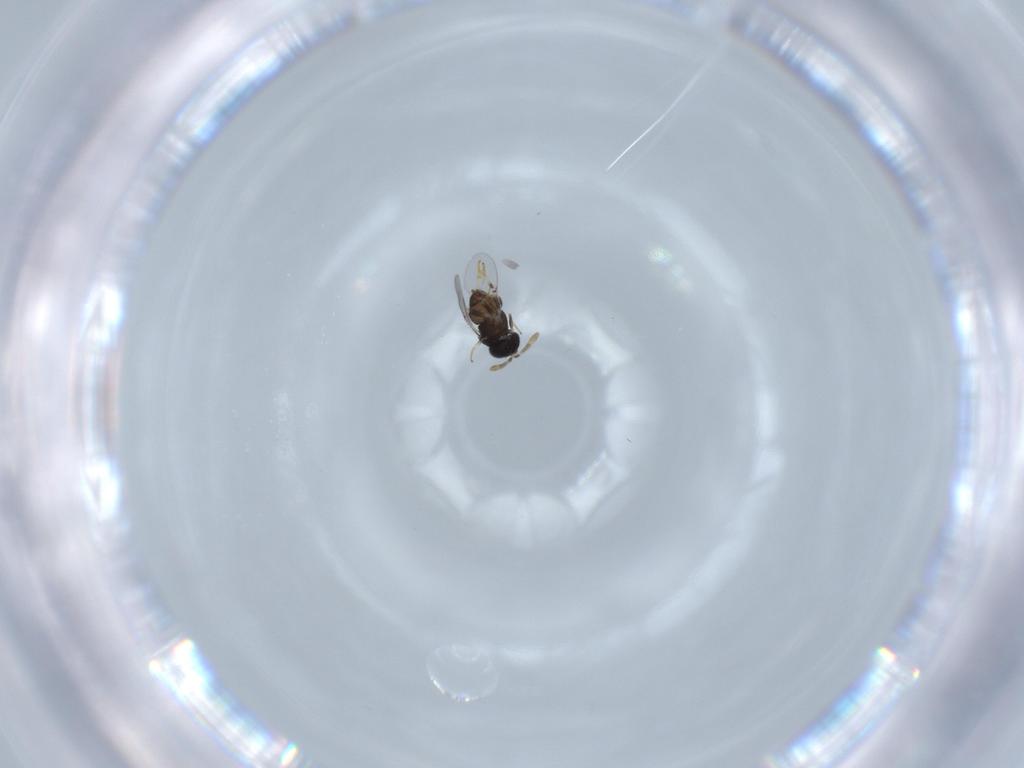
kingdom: Animalia
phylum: Arthropoda
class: Insecta
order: Hymenoptera
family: Encyrtidae
